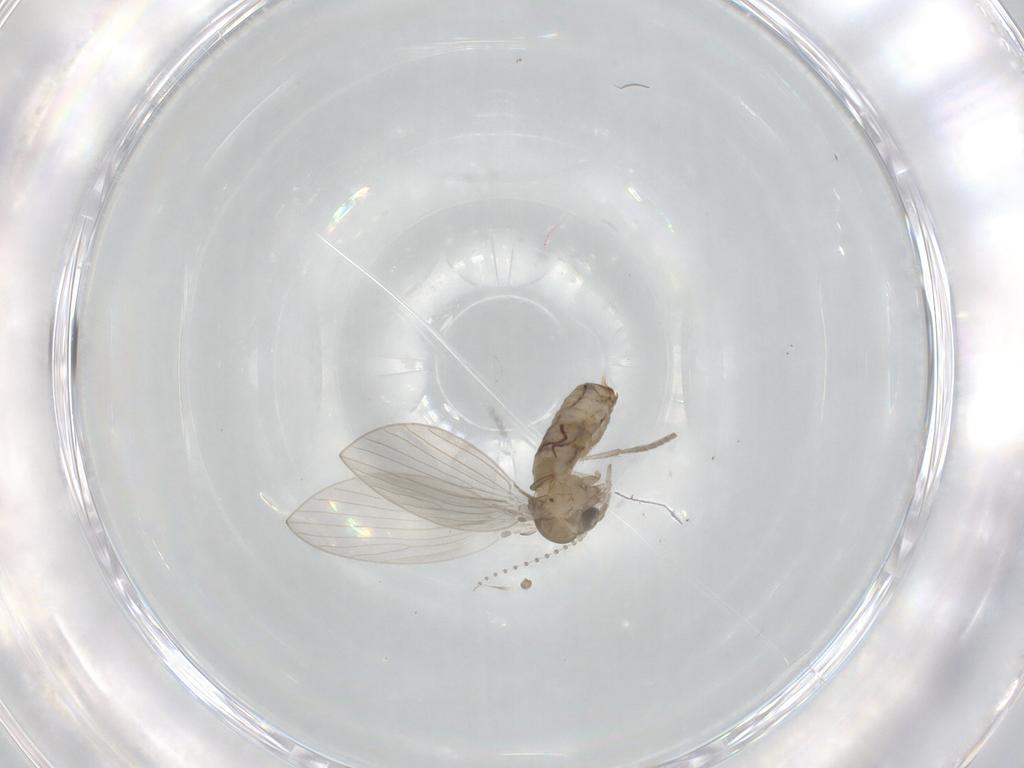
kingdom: Animalia
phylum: Arthropoda
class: Insecta
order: Diptera
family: Psychodidae
